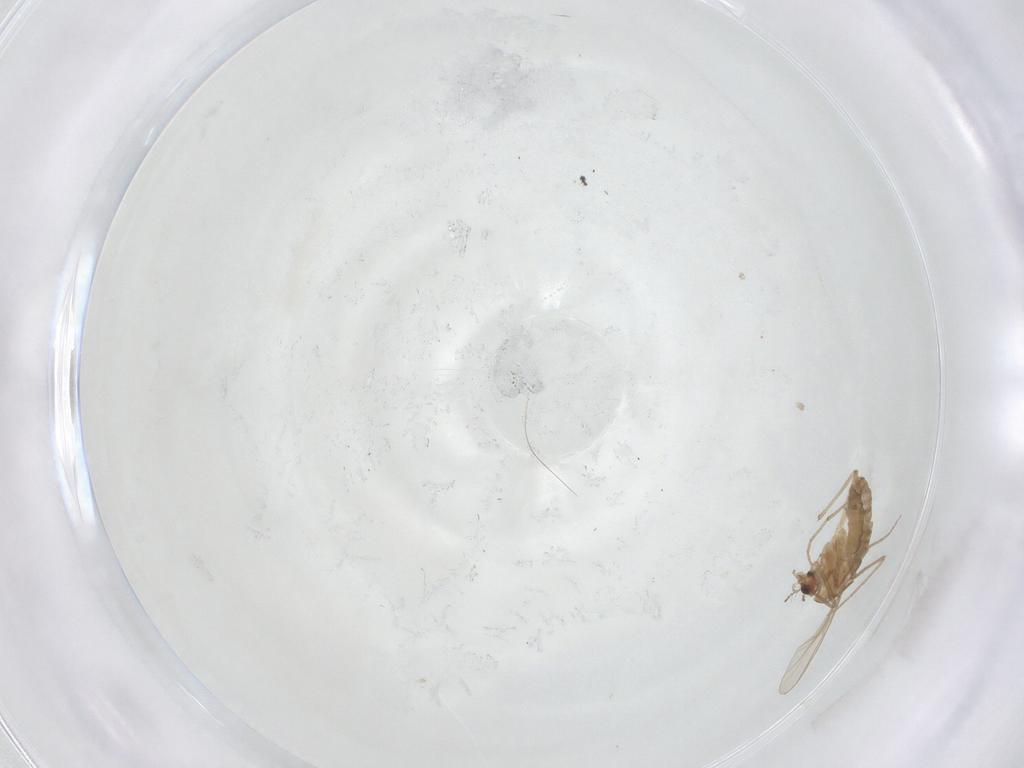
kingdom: Animalia
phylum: Arthropoda
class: Insecta
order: Diptera
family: Chironomidae
